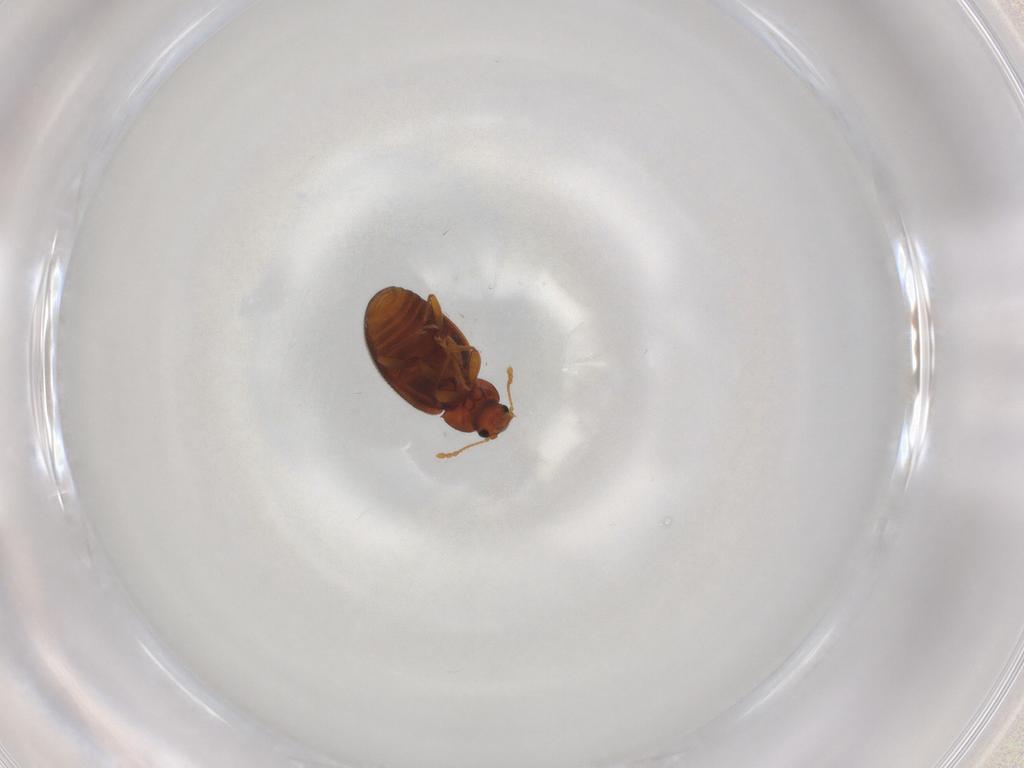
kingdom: Animalia
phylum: Arthropoda
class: Insecta
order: Coleoptera
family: Latridiidae
